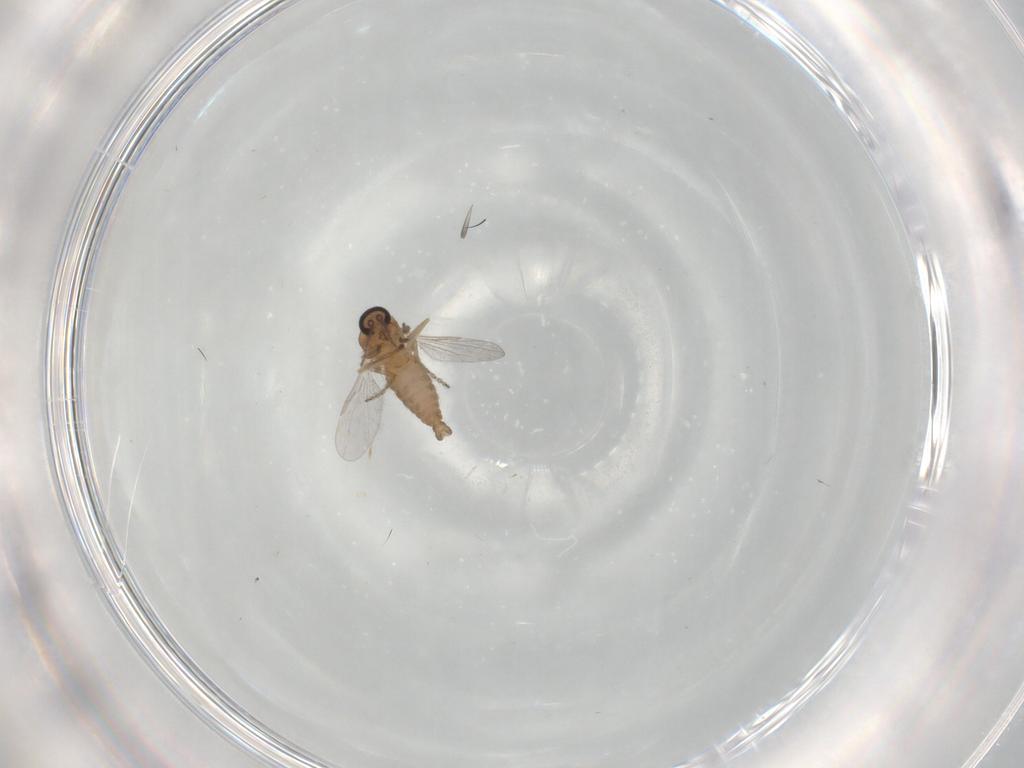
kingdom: Animalia
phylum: Arthropoda
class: Insecta
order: Diptera
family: Ceratopogonidae
